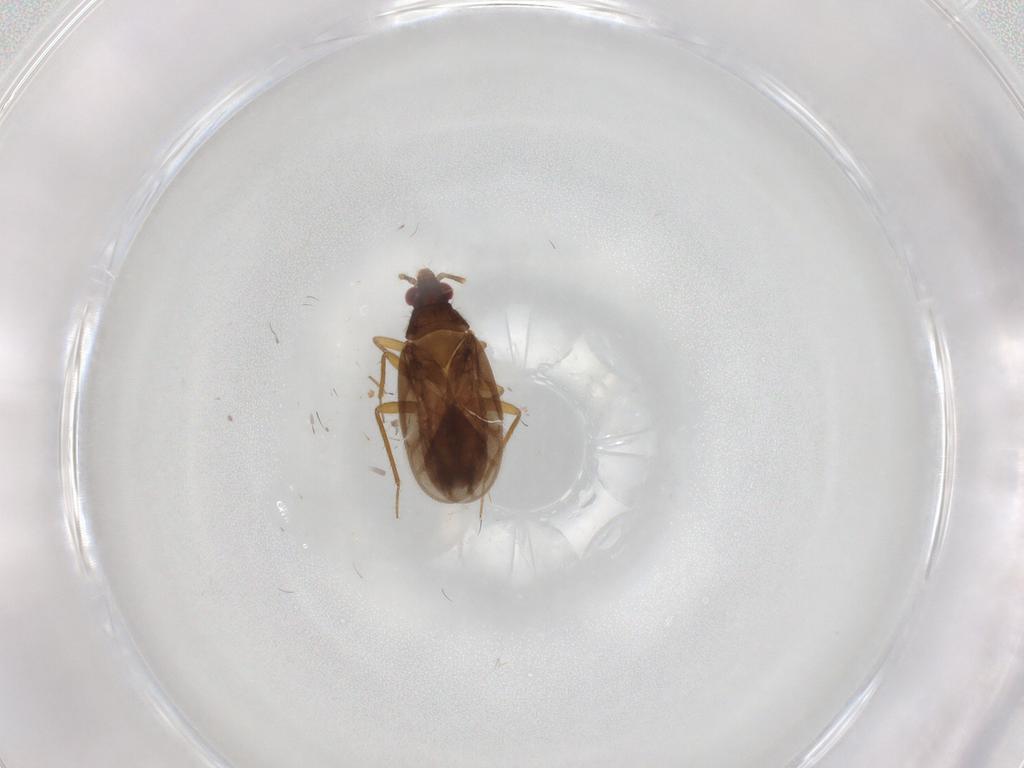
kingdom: Animalia
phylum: Arthropoda
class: Insecta
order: Hemiptera
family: Ceratocombidae
